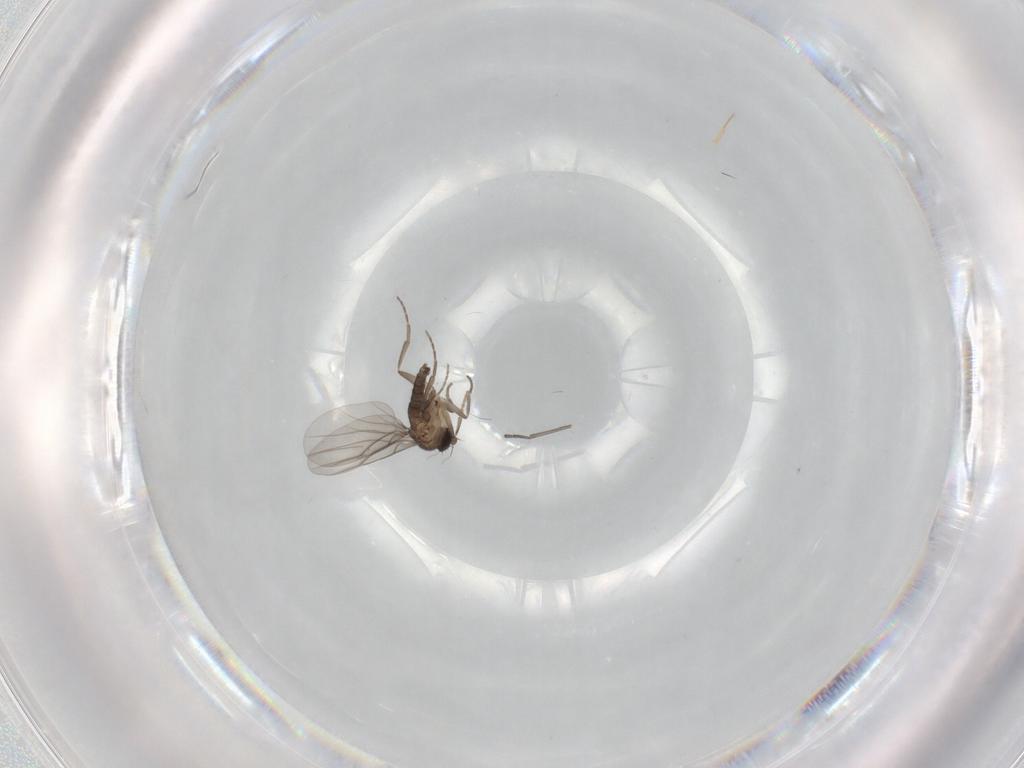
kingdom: Animalia
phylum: Arthropoda
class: Insecta
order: Diptera
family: Sciaridae
